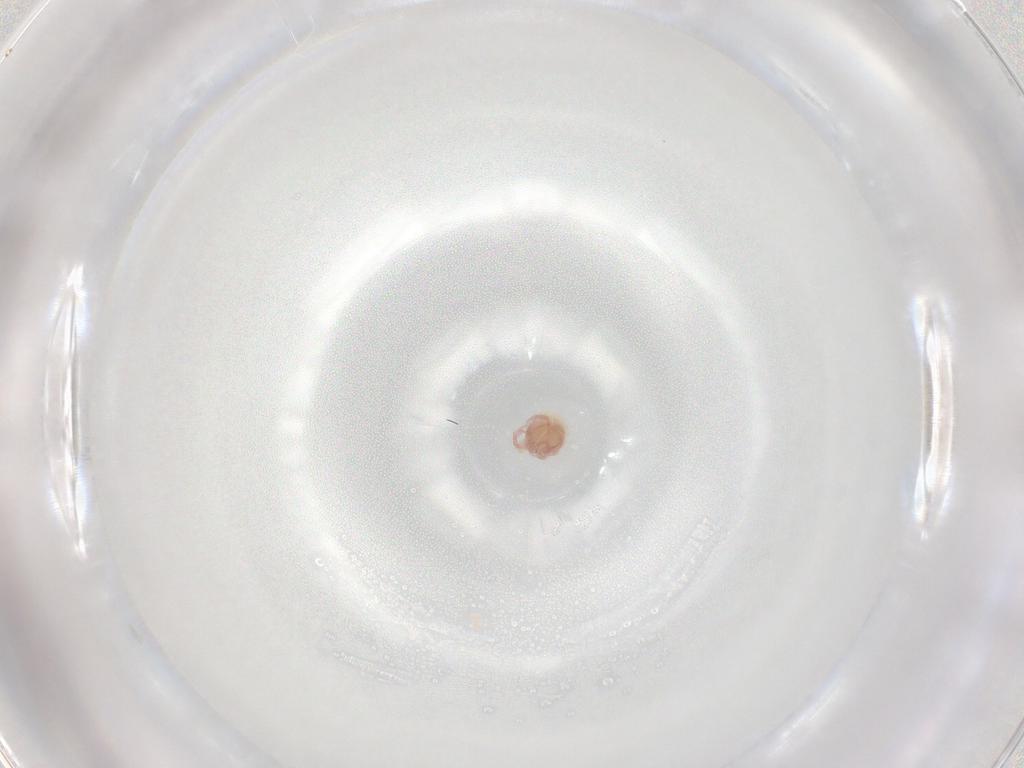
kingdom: Animalia
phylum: Arthropoda
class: Arachnida
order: Trombidiformes
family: Lebertiidae
